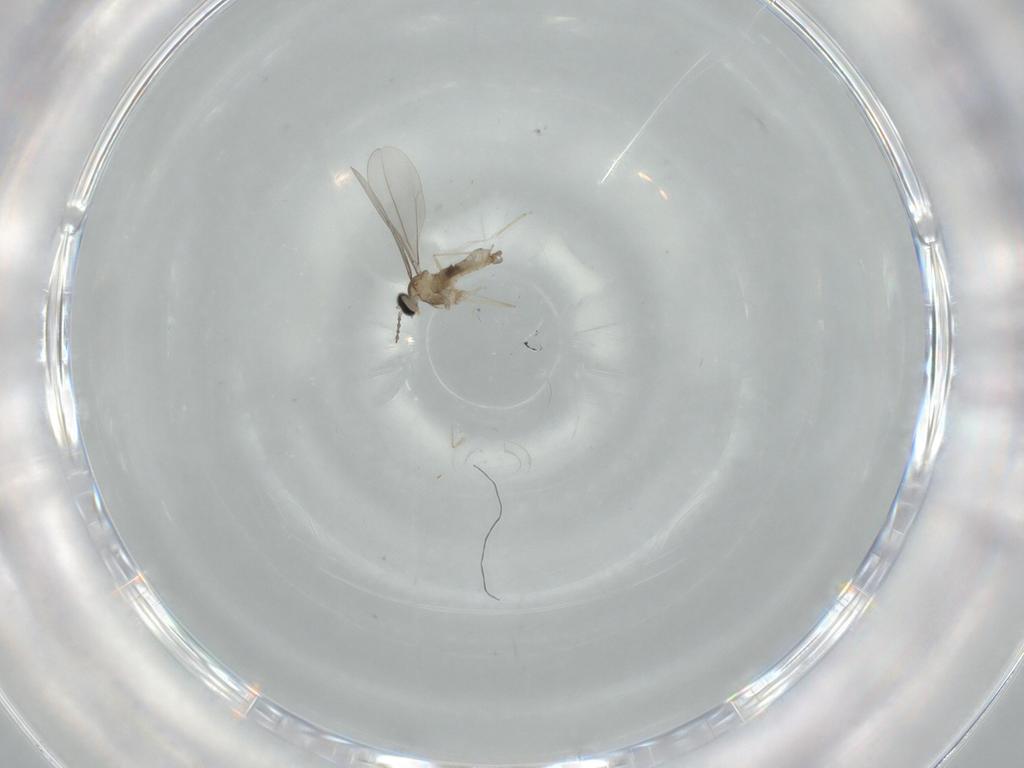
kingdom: Animalia
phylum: Arthropoda
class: Insecta
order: Diptera
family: Cecidomyiidae
